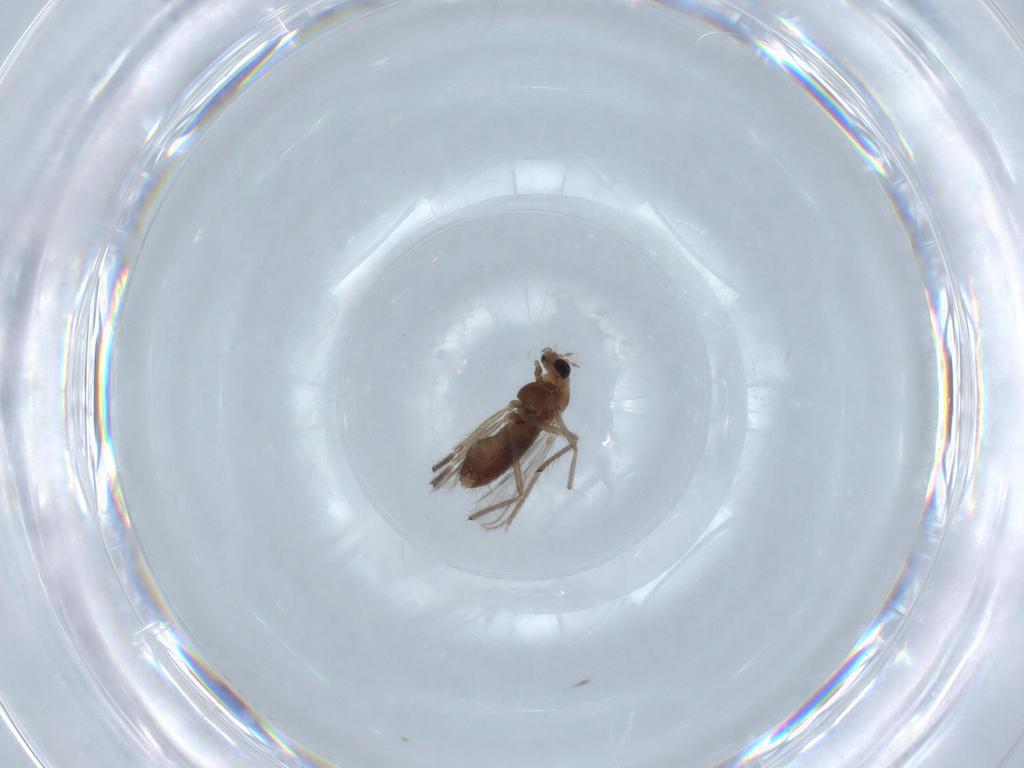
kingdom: Animalia
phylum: Arthropoda
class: Insecta
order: Diptera
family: Chironomidae
